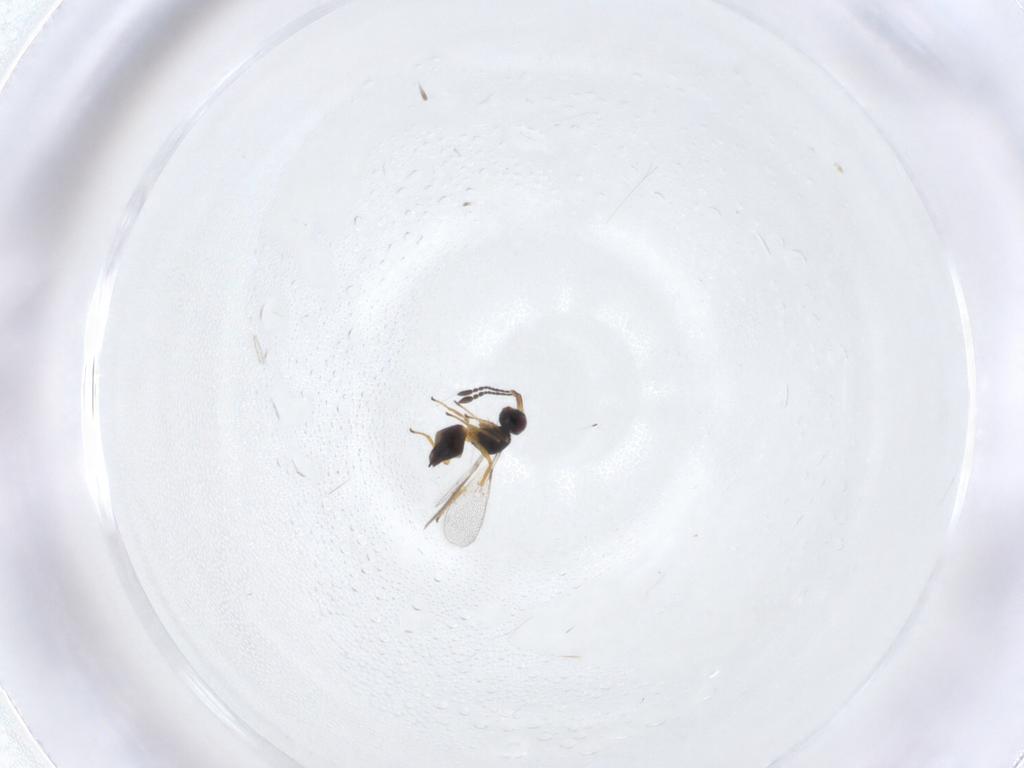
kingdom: Animalia
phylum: Arthropoda
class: Insecta
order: Hymenoptera
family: Mymaridae
